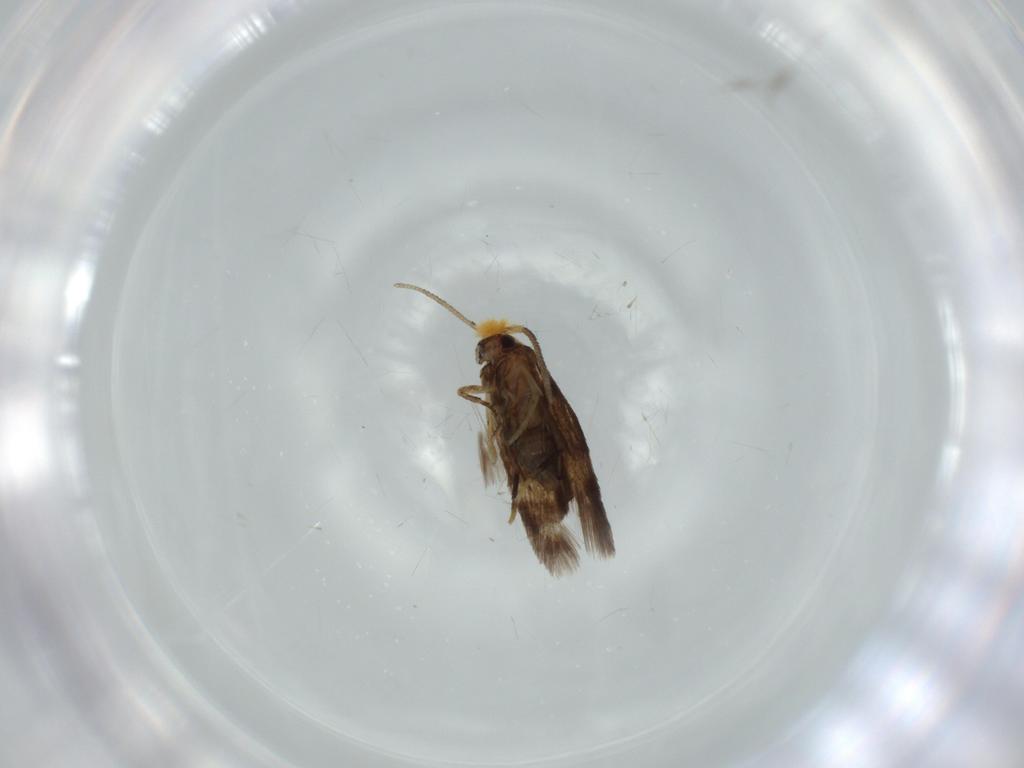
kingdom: Animalia
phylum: Arthropoda
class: Insecta
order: Lepidoptera
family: Nepticulidae
